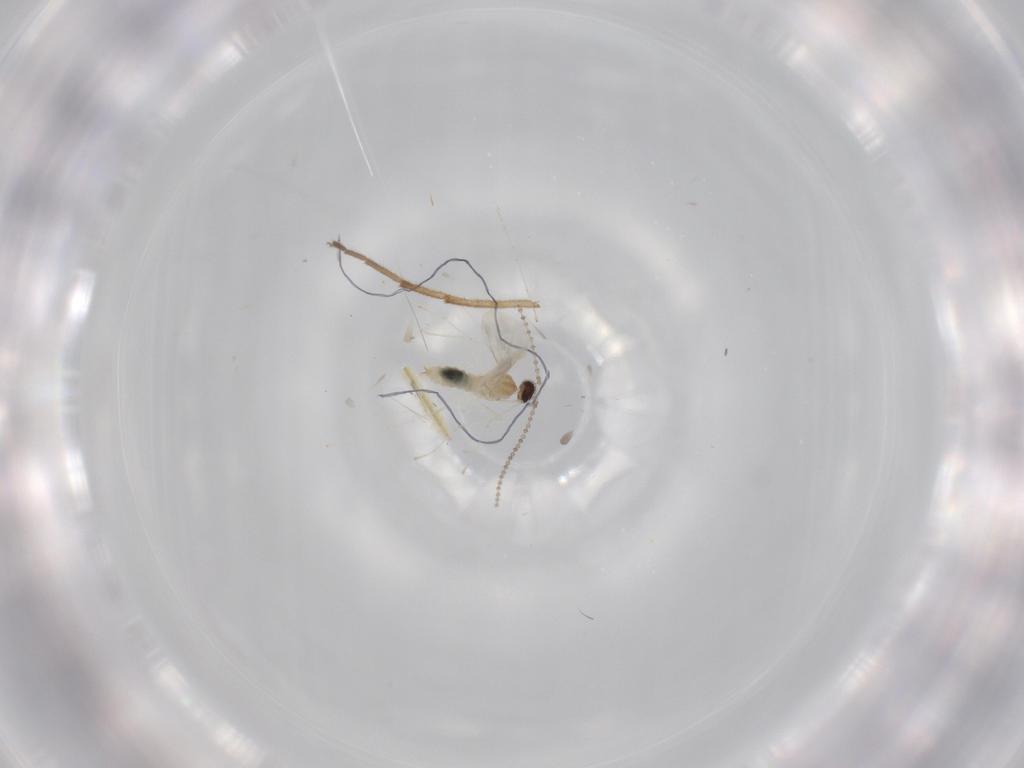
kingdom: Animalia
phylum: Arthropoda
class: Insecta
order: Diptera
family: Cecidomyiidae
